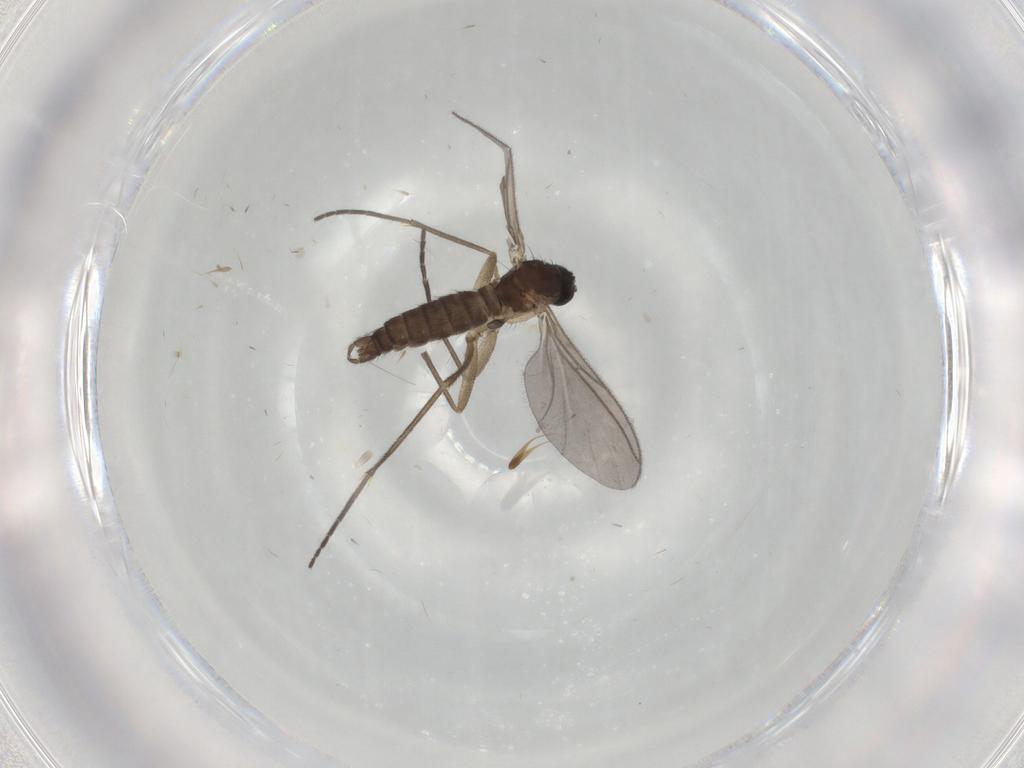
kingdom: Animalia
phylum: Arthropoda
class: Insecta
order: Diptera
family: Sciaridae
